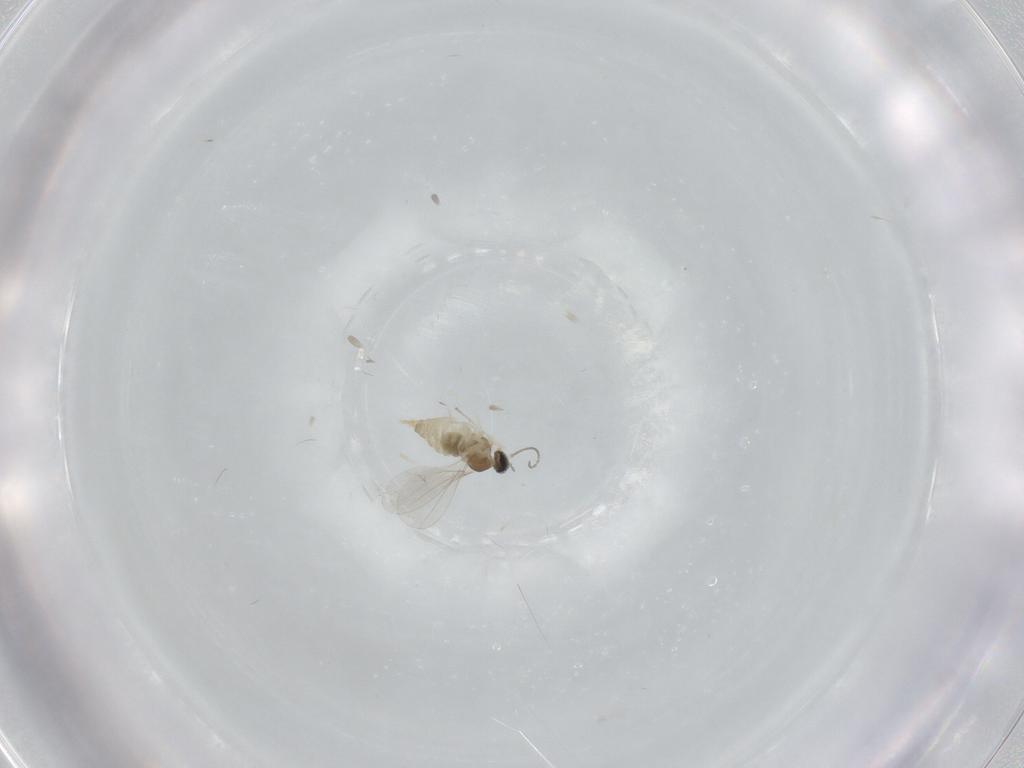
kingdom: Animalia
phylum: Arthropoda
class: Insecta
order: Diptera
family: Cecidomyiidae
